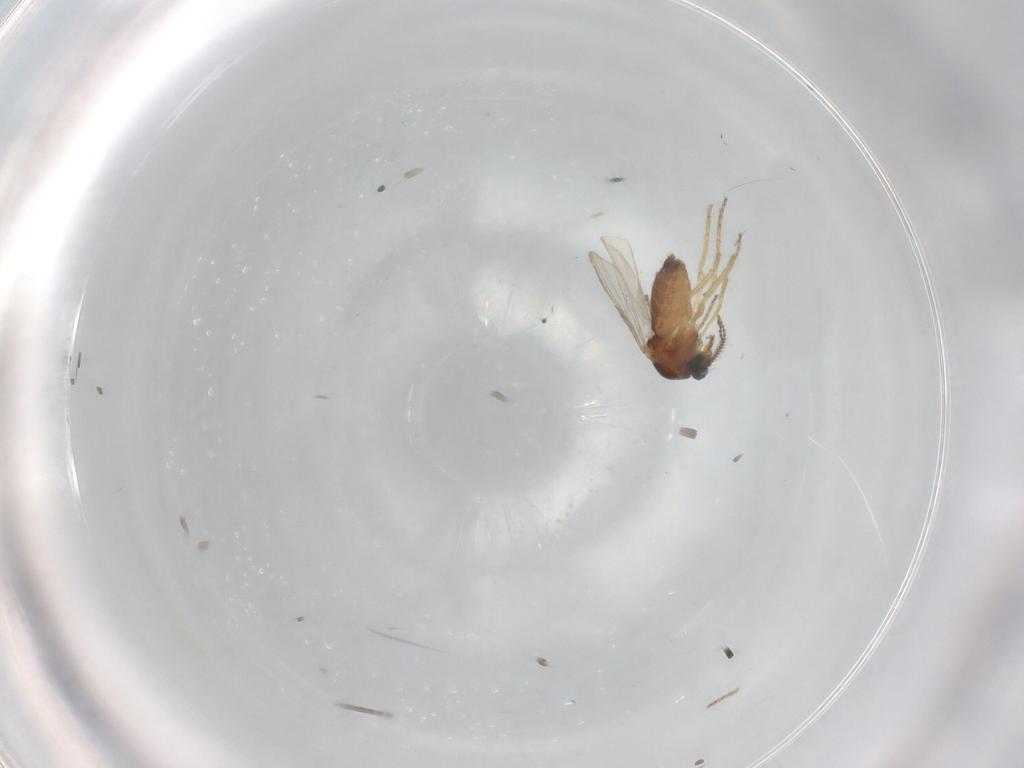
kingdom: Animalia
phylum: Arthropoda
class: Insecta
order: Diptera
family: Ceratopogonidae
